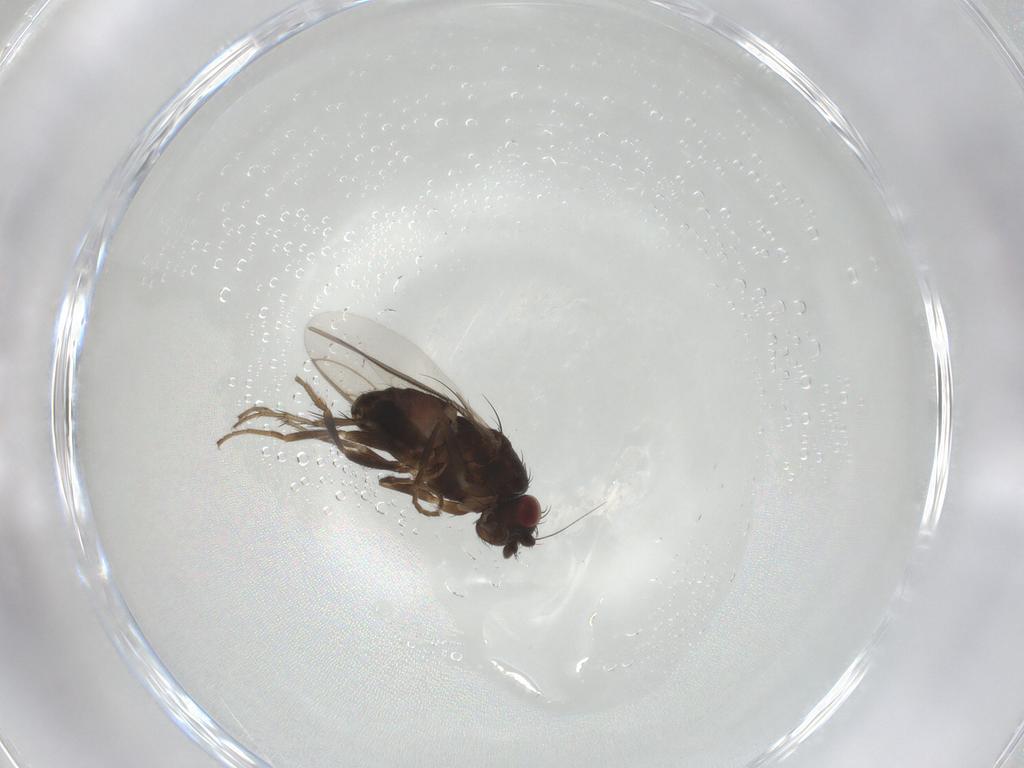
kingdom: Animalia
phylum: Arthropoda
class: Insecta
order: Diptera
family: Sphaeroceridae
